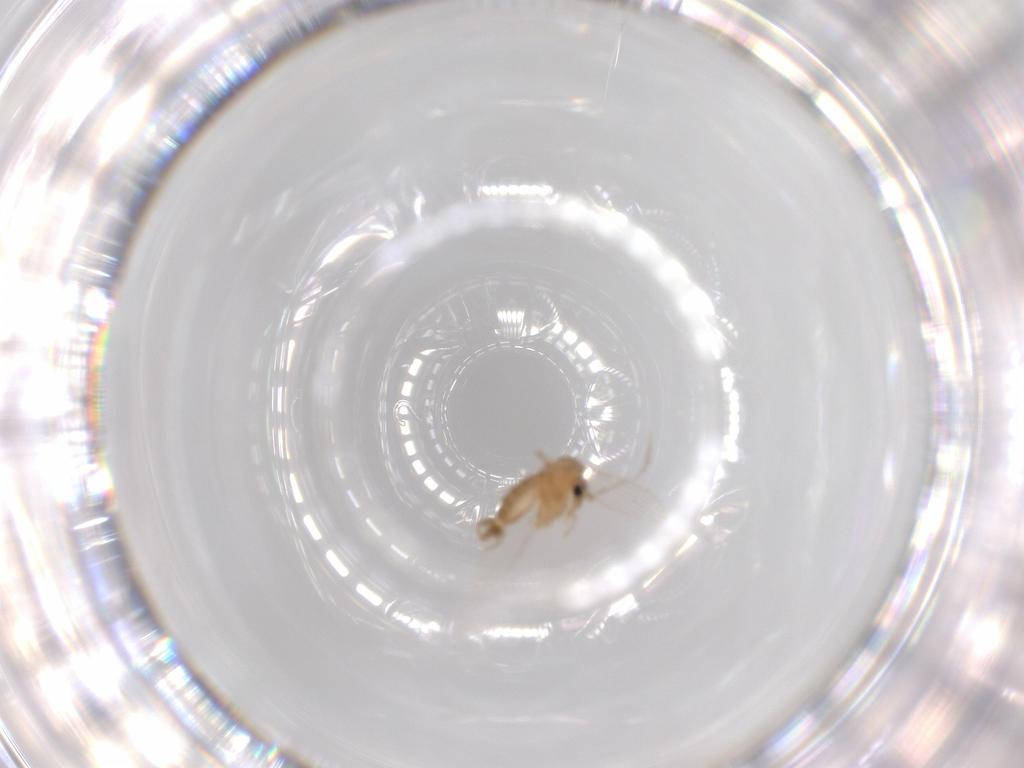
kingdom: Animalia
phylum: Arthropoda
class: Insecta
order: Diptera
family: Psychodidae
